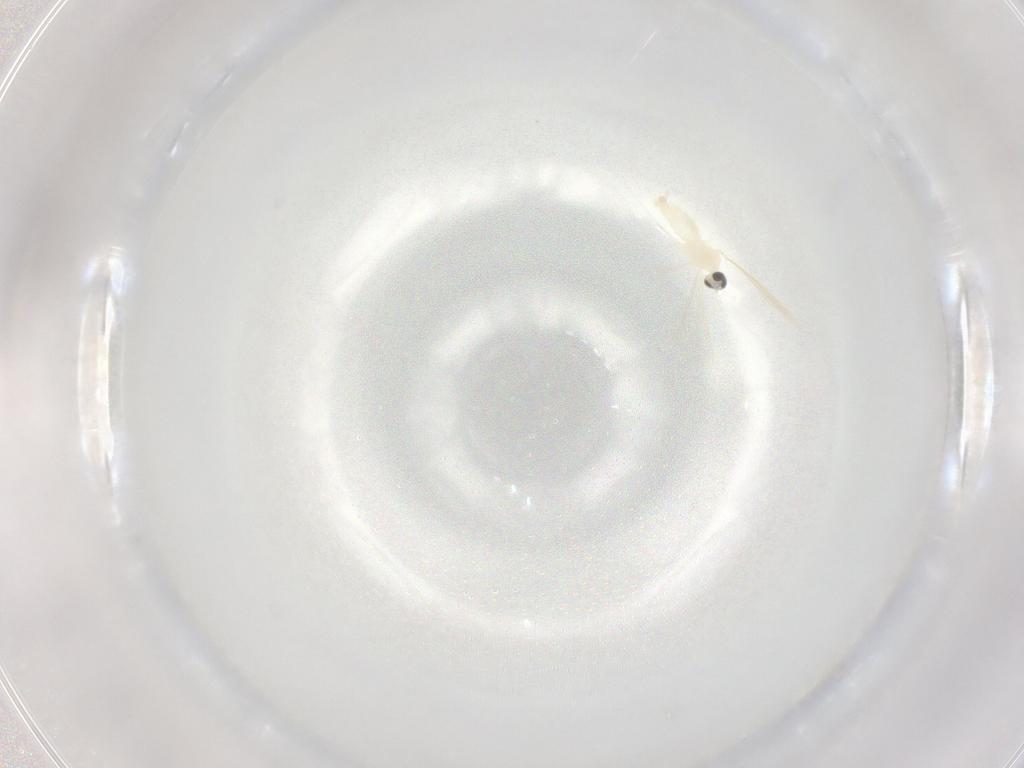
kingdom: Animalia
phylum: Arthropoda
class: Insecta
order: Diptera
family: Cecidomyiidae
